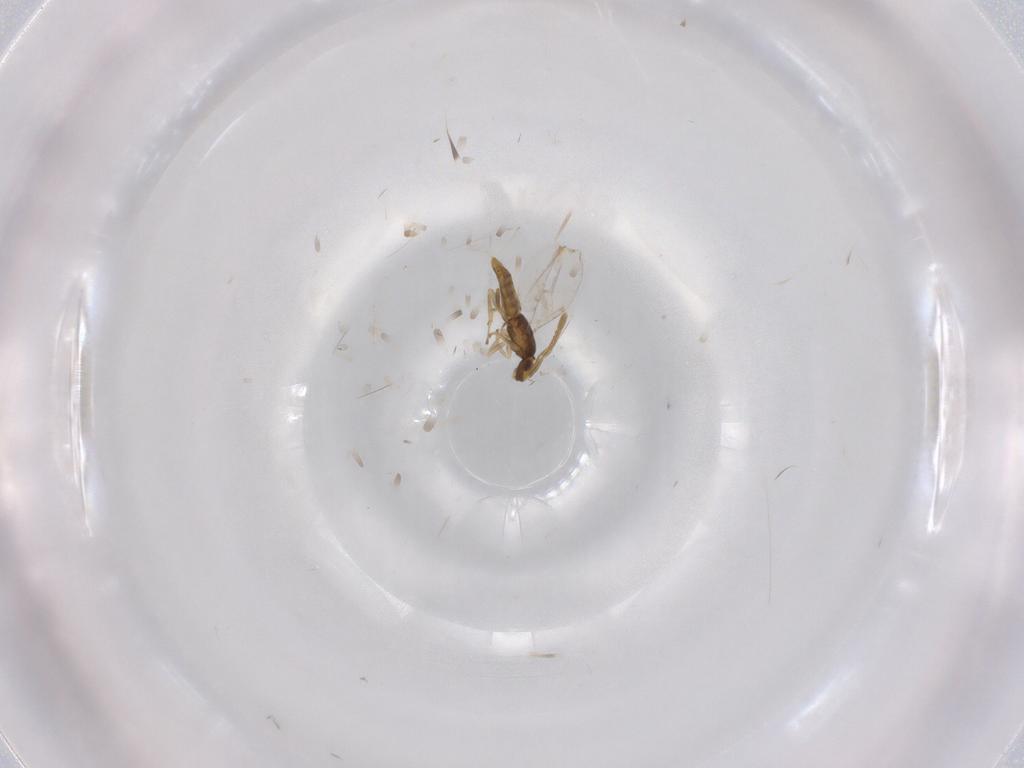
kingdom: Animalia
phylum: Arthropoda
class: Insecta
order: Hymenoptera
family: Encyrtidae
